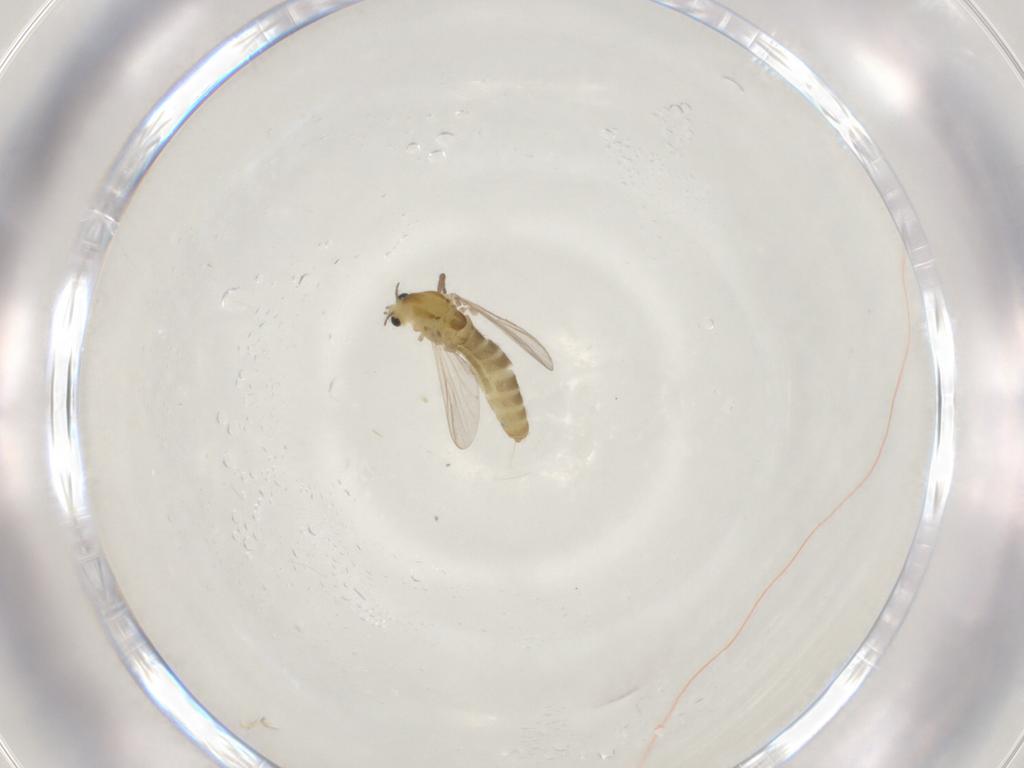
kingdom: Animalia
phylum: Arthropoda
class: Insecta
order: Diptera
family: Chironomidae
